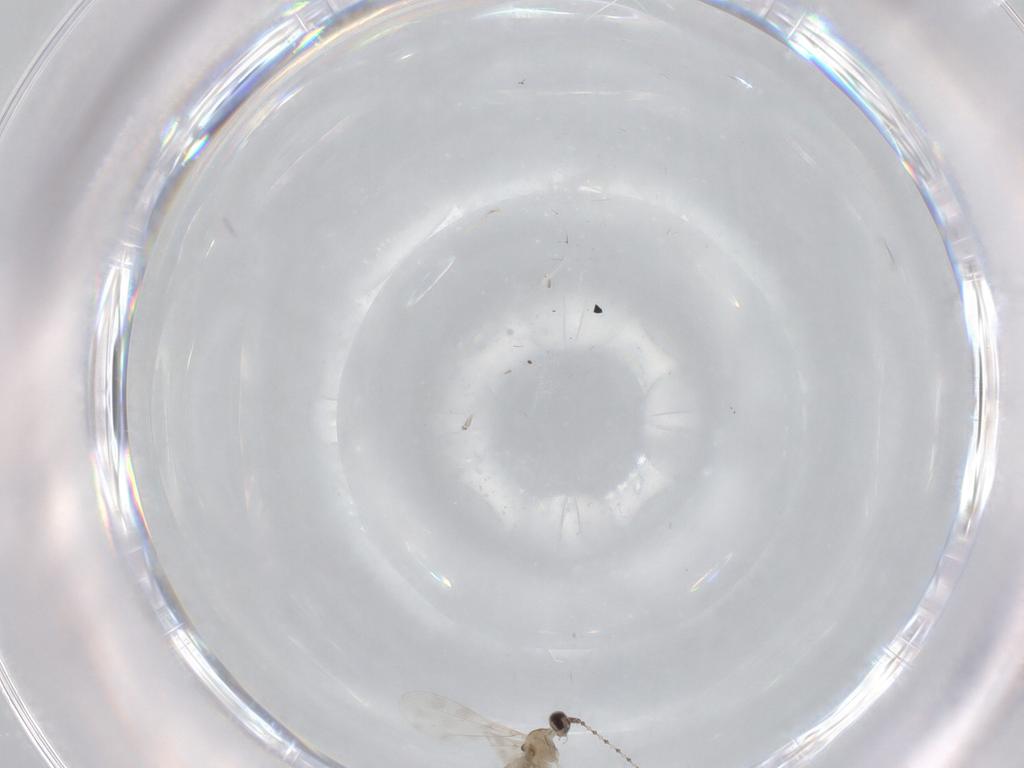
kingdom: Animalia
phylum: Arthropoda
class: Insecta
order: Diptera
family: Cecidomyiidae
